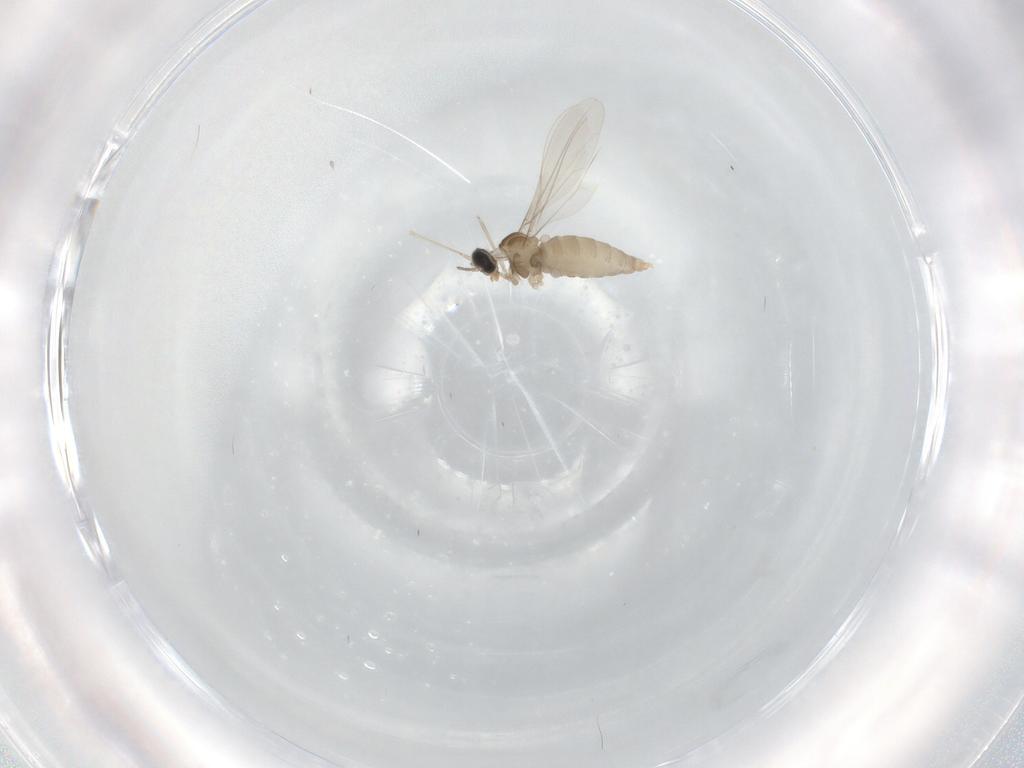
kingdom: Animalia
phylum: Arthropoda
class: Insecta
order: Diptera
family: Cecidomyiidae
